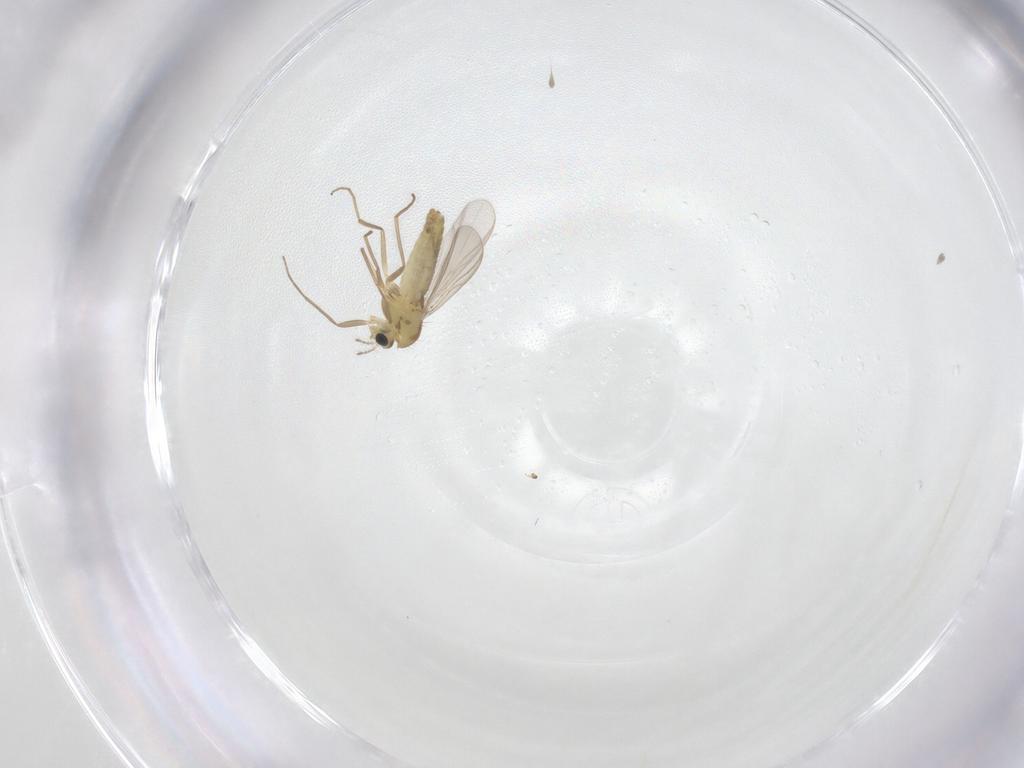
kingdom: Animalia
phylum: Arthropoda
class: Insecta
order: Diptera
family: Chironomidae
